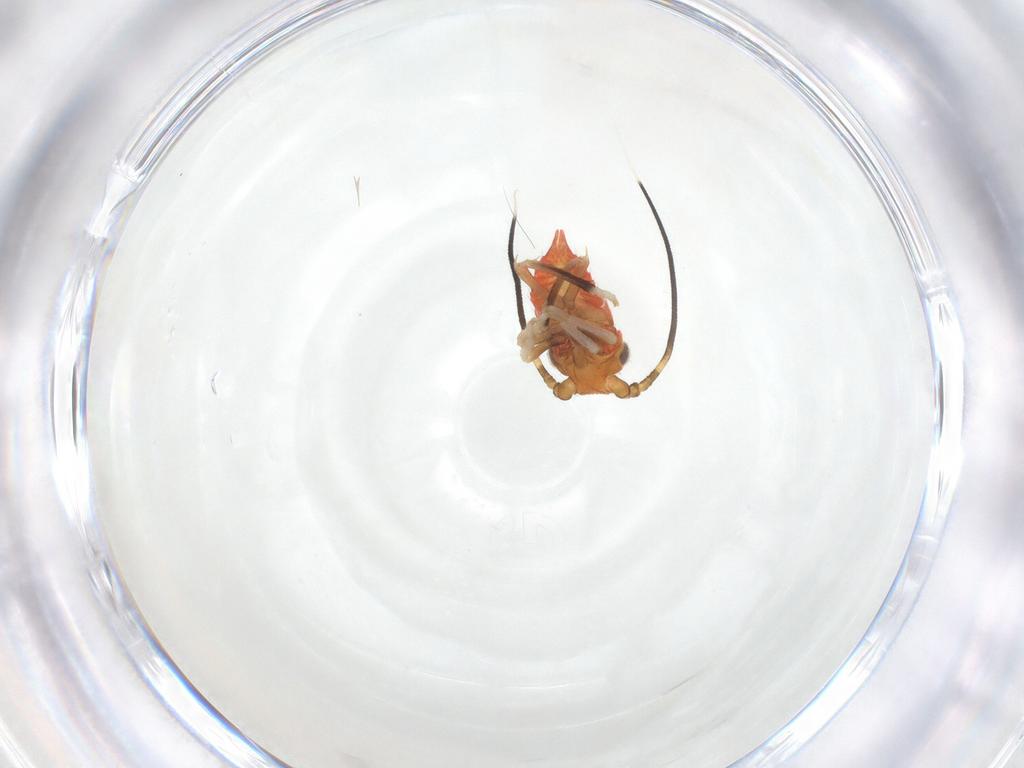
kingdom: Animalia
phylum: Arthropoda
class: Insecta
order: Hemiptera
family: Cicadellidae
